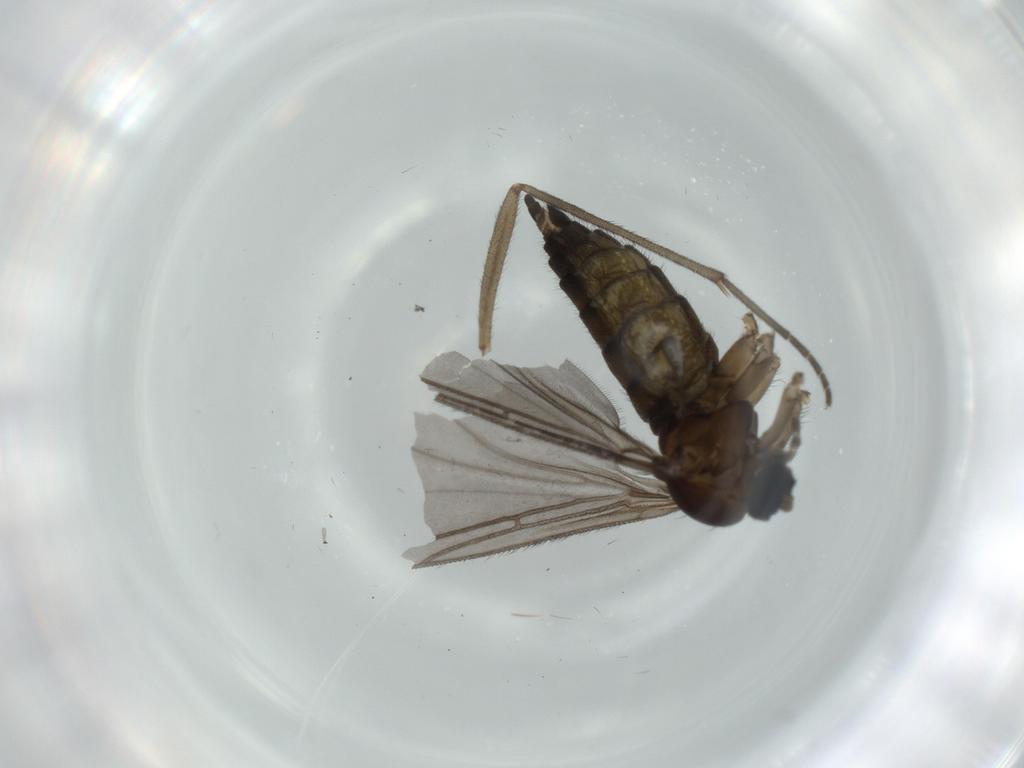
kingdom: Animalia
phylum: Arthropoda
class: Insecta
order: Diptera
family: Sciaridae
